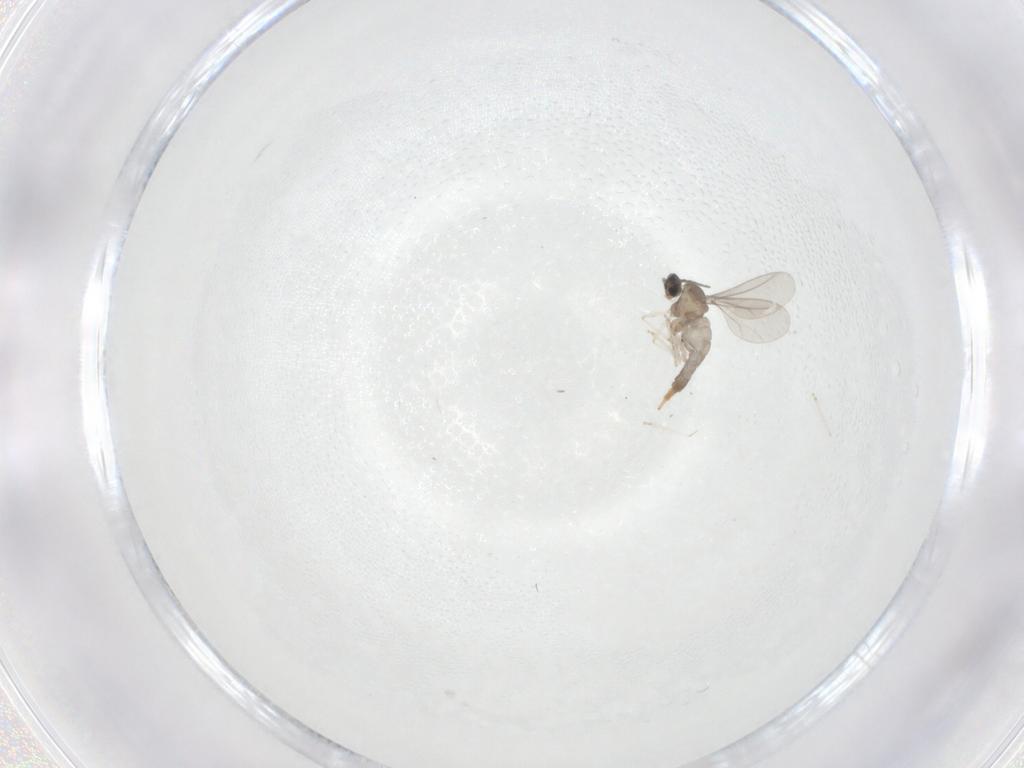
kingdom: Animalia
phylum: Arthropoda
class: Insecta
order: Diptera
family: Cecidomyiidae
